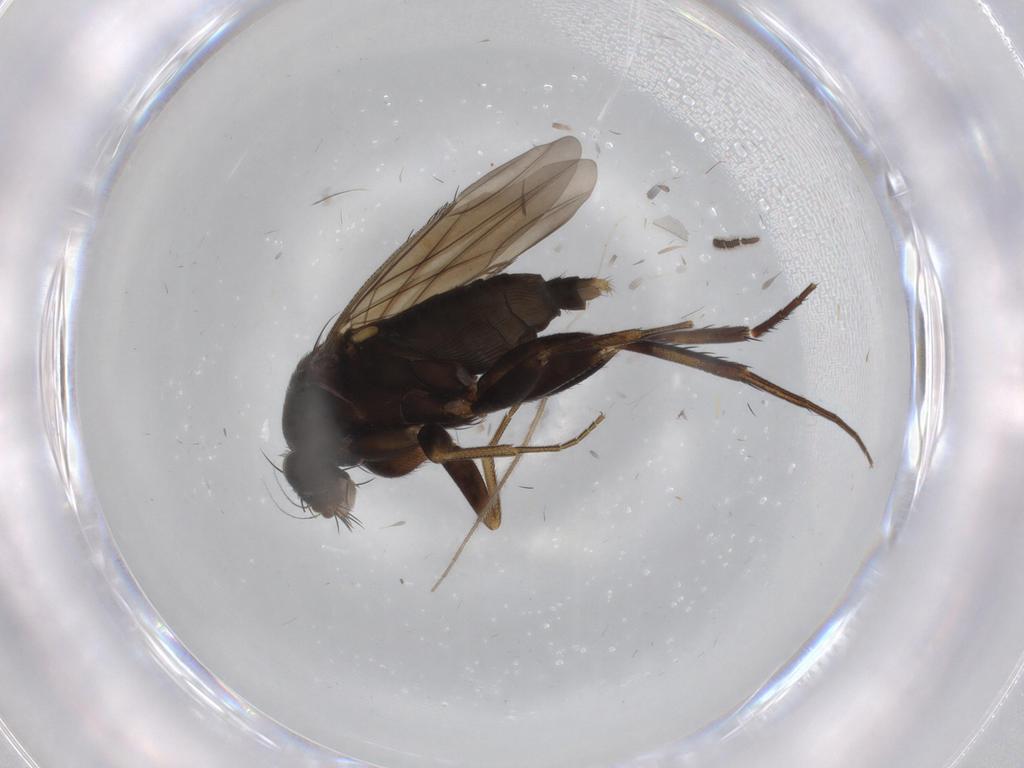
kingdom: Animalia
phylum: Arthropoda
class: Insecta
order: Diptera
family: Phoridae
